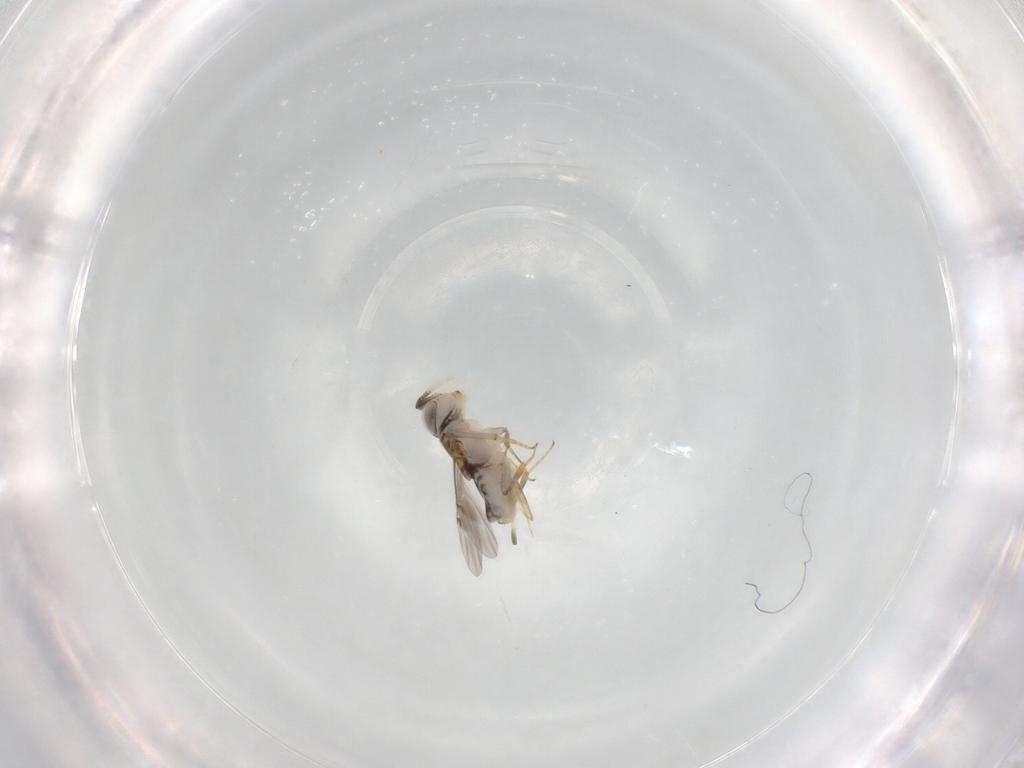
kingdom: Animalia
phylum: Arthropoda
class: Insecta
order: Hymenoptera
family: Encyrtidae
